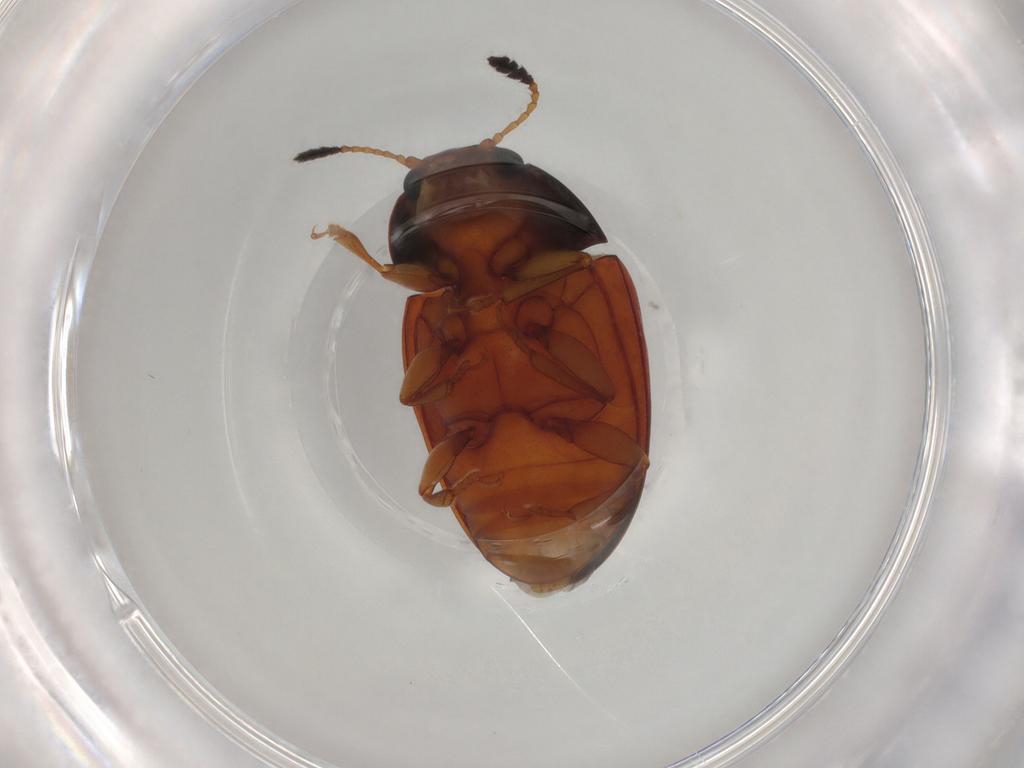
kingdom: Animalia
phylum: Arthropoda
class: Insecta
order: Coleoptera
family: Erotylidae
